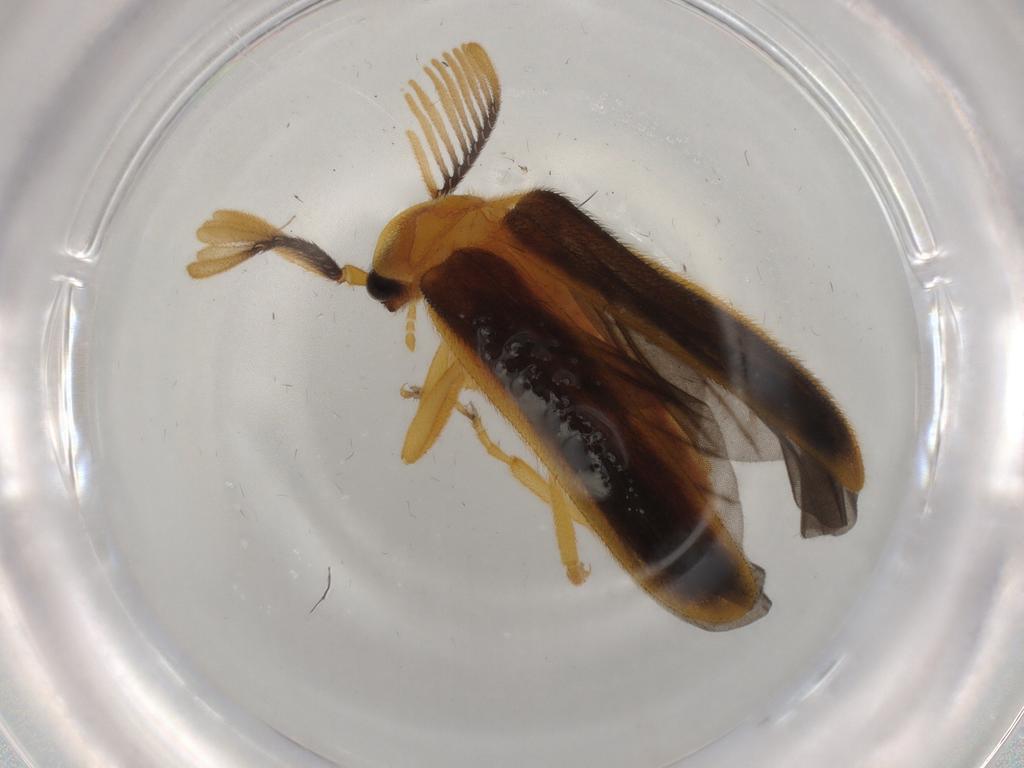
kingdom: Animalia
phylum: Arthropoda
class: Insecta
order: Coleoptera
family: Lampyridae
